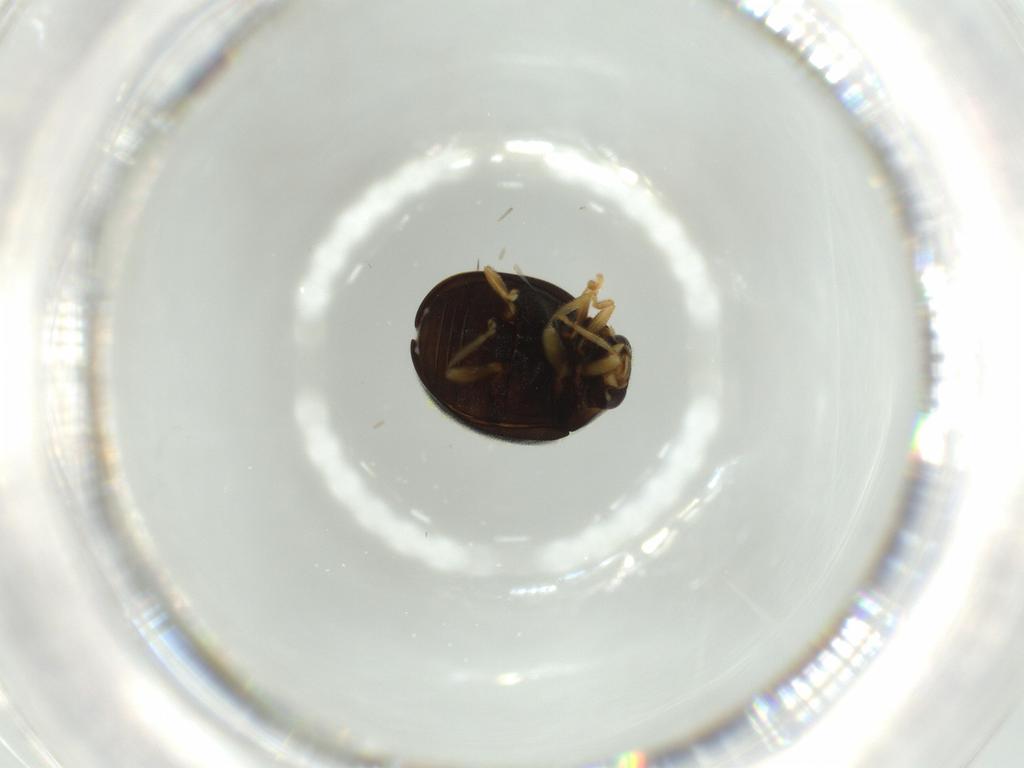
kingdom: Animalia
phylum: Arthropoda
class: Insecta
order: Coleoptera
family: Coccinellidae
